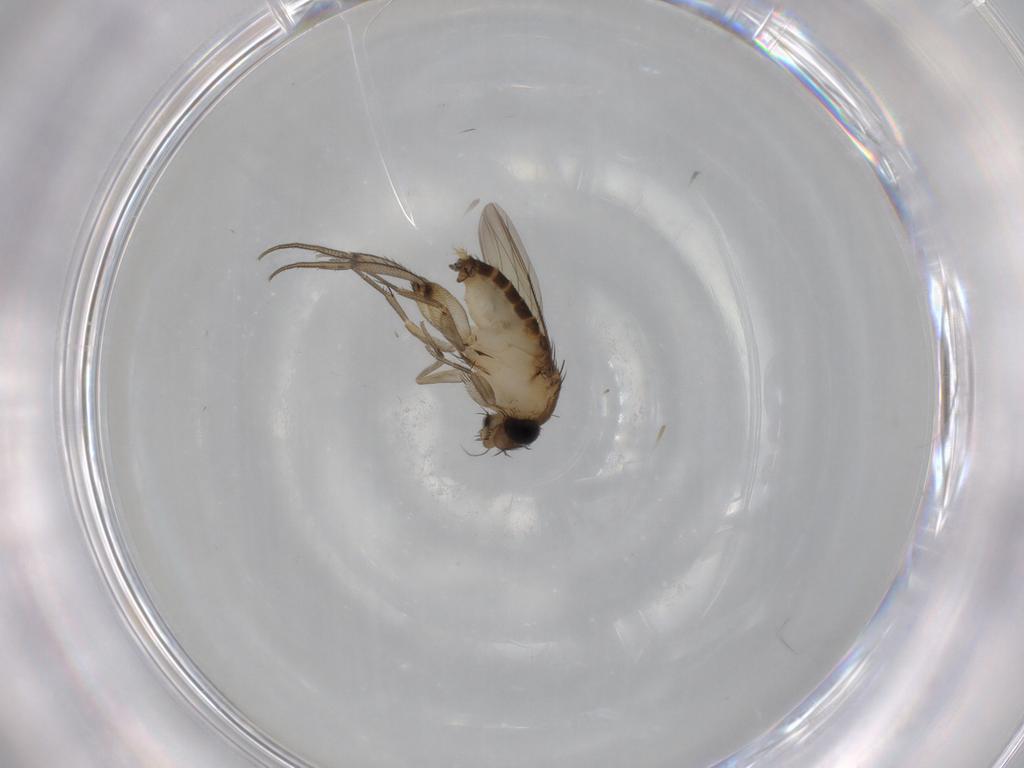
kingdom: Animalia
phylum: Arthropoda
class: Insecta
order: Diptera
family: Phoridae
